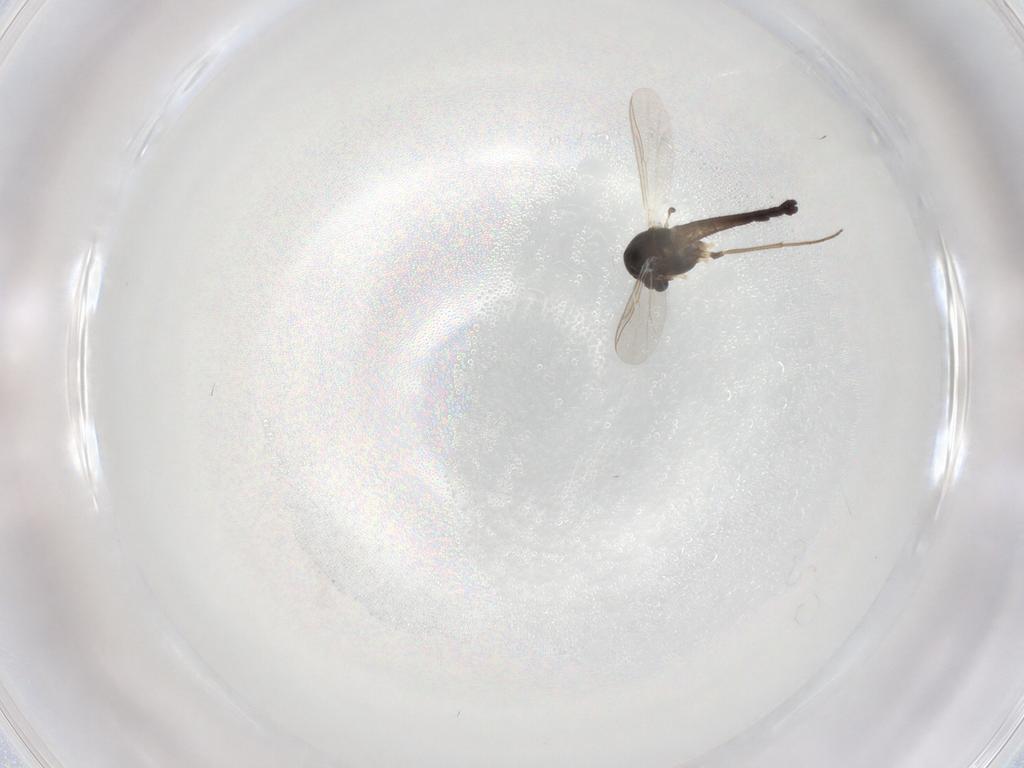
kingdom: Animalia
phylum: Arthropoda
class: Insecta
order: Diptera
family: Chironomidae
